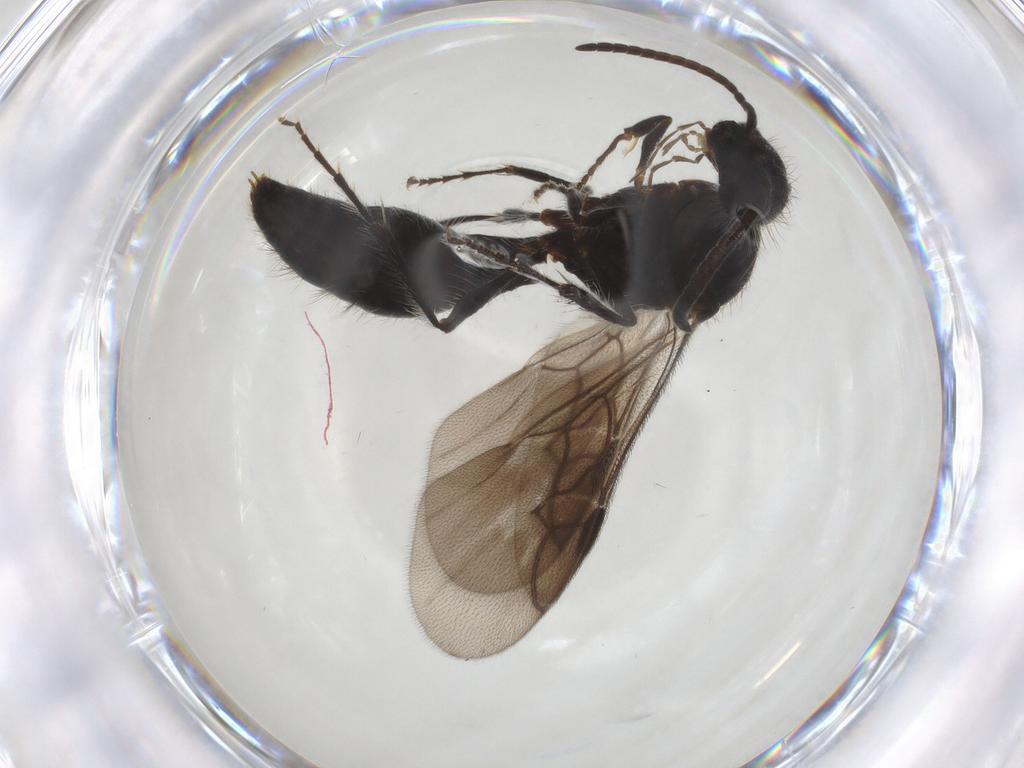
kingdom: Animalia
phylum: Arthropoda
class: Insecta
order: Hymenoptera
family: Mutillidae
